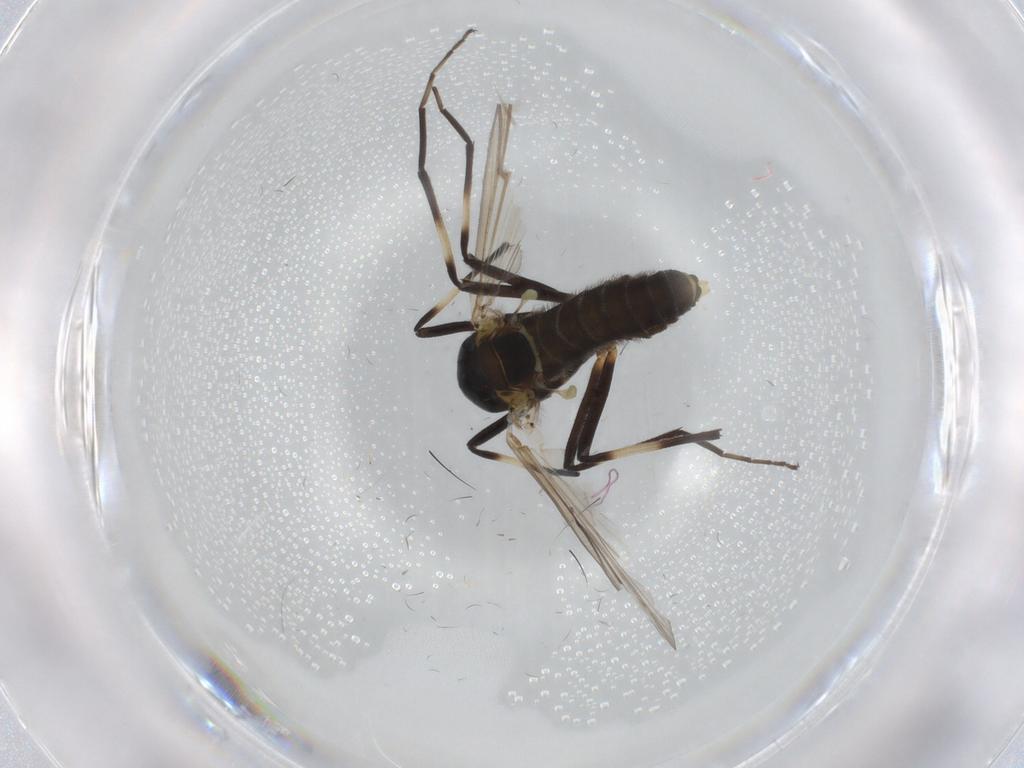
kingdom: Animalia
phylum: Arthropoda
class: Insecta
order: Diptera
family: Chironomidae
